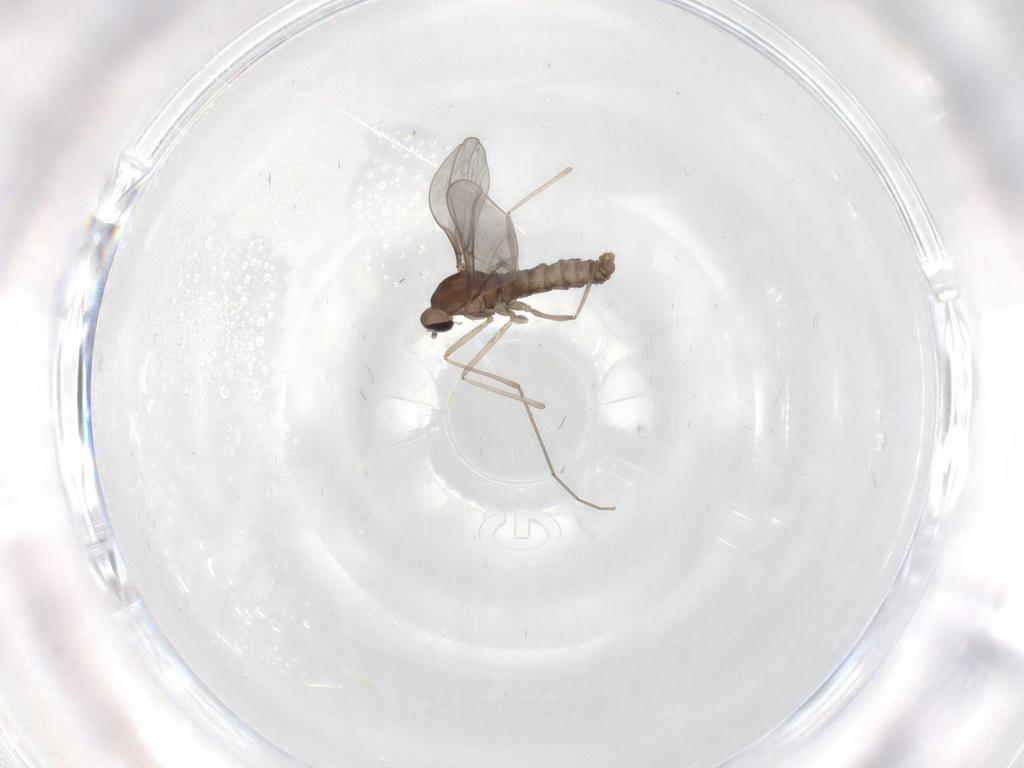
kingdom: Animalia
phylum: Arthropoda
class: Insecta
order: Diptera
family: Cecidomyiidae
